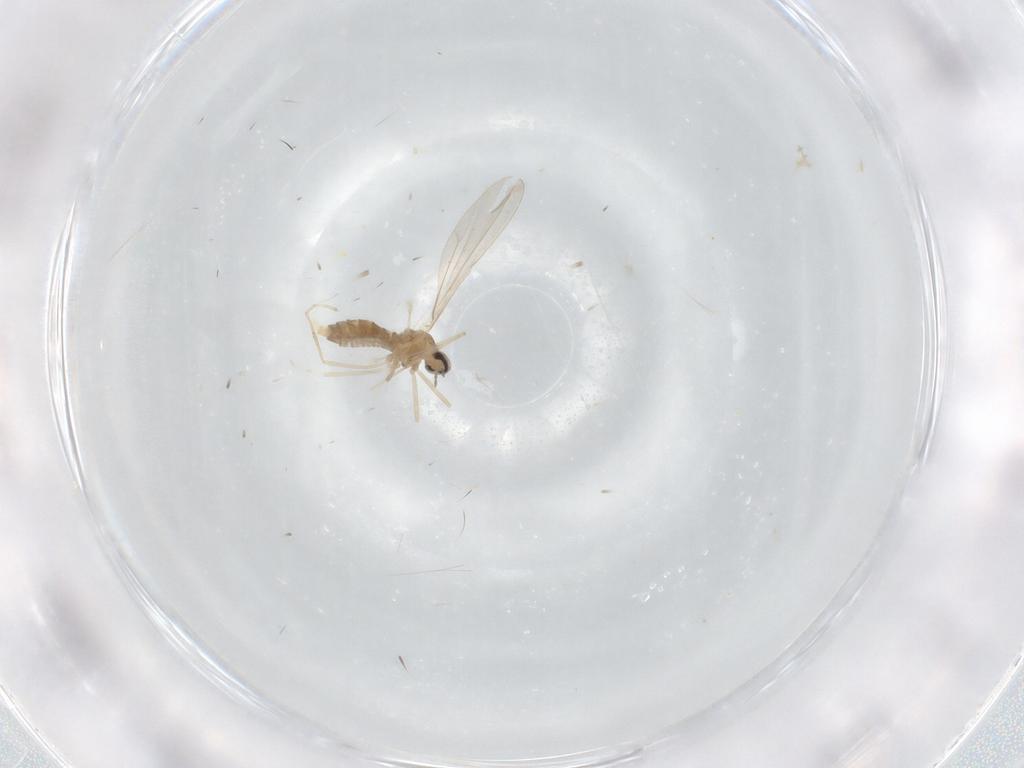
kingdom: Animalia
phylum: Arthropoda
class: Insecta
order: Diptera
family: Cecidomyiidae
